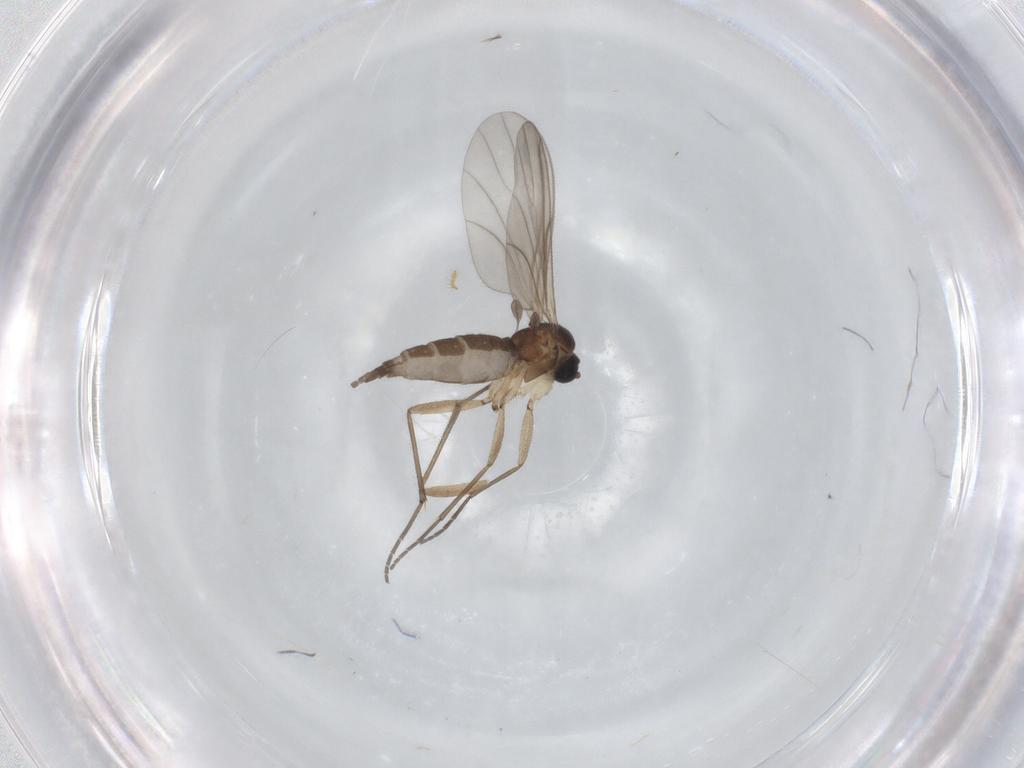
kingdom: Animalia
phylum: Arthropoda
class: Insecta
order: Diptera
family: Sciaridae
